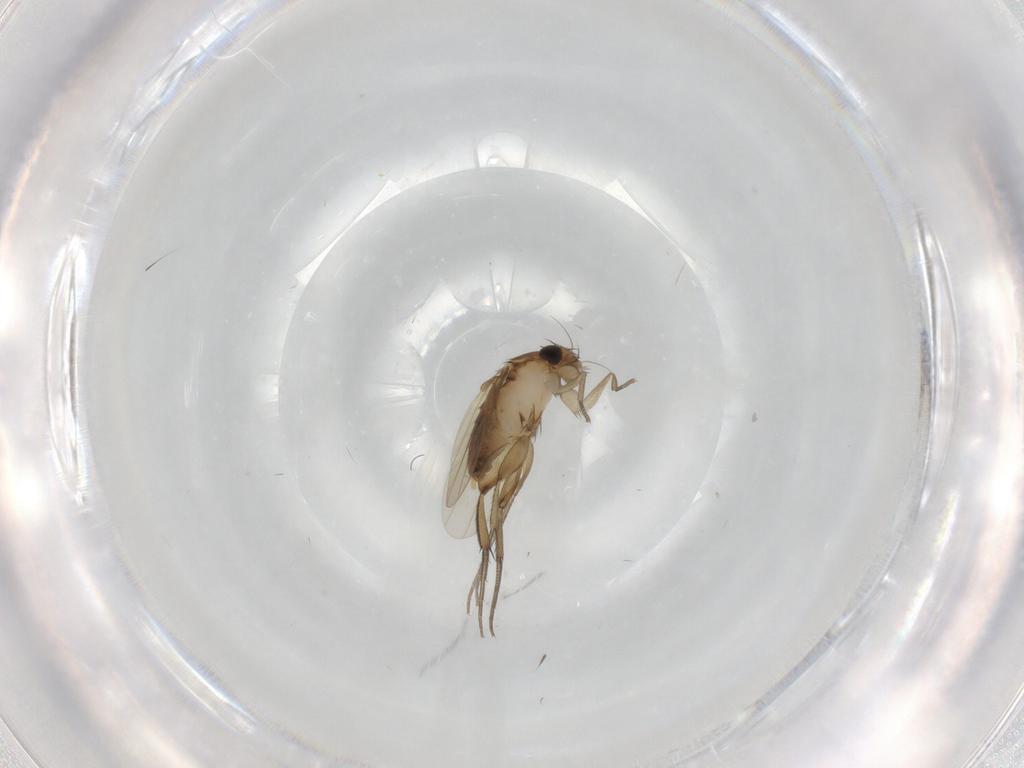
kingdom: Animalia
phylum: Arthropoda
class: Insecta
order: Diptera
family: Phoridae
